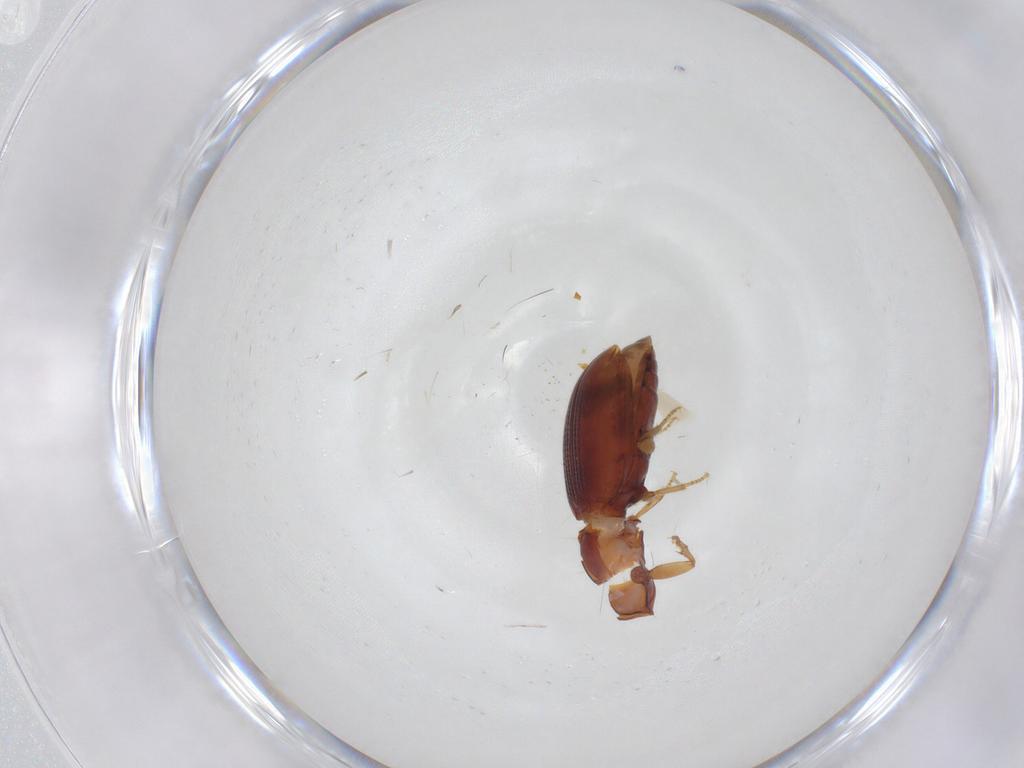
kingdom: Animalia
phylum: Arthropoda
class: Insecta
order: Coleoptera
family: Carabidae
